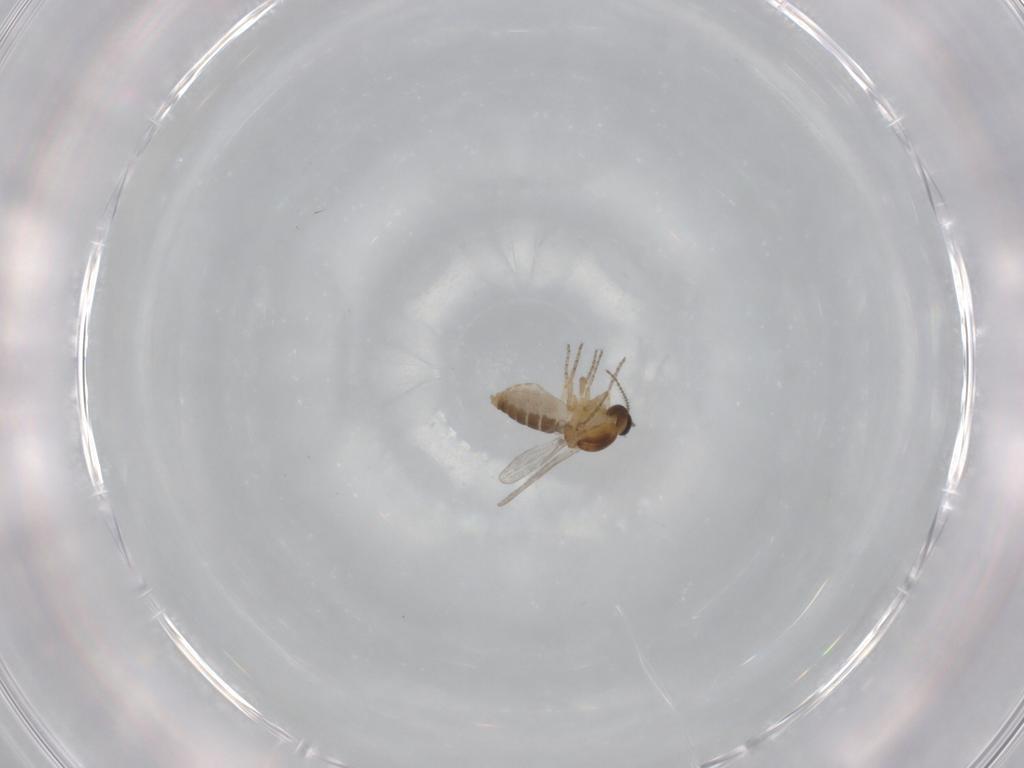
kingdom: Animalia
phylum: Arthropoda
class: Insecta
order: Diptera
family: Ceratopogonidae
